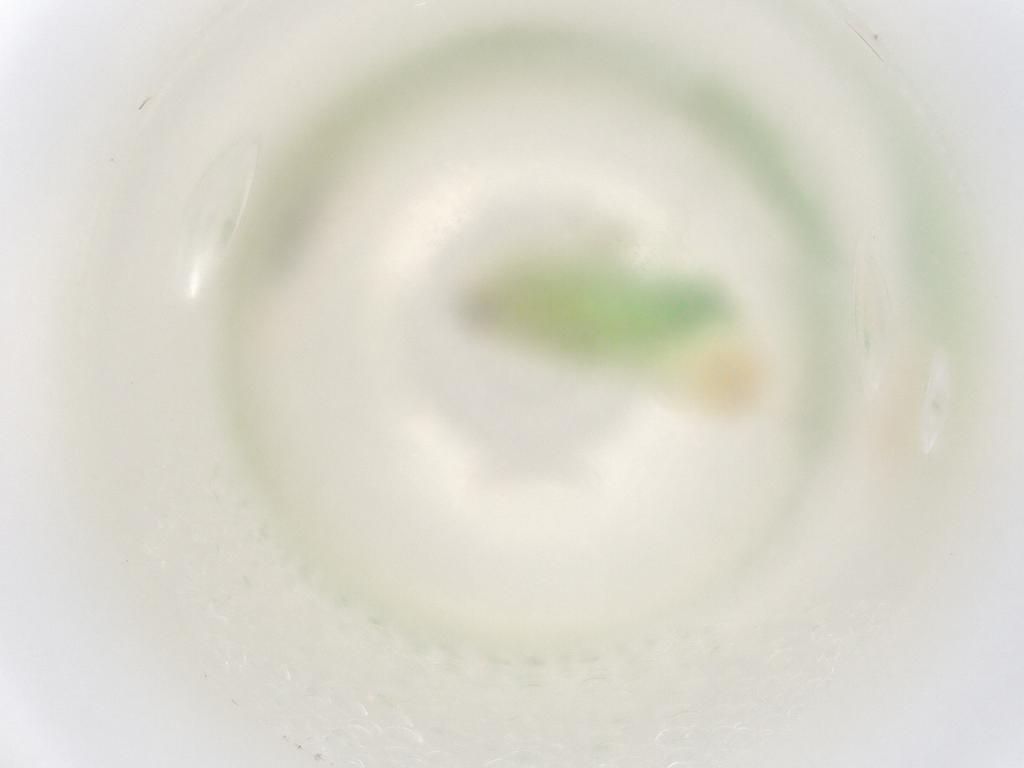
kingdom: Animalia
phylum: Arthropoda
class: Insecta
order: Hemiptera
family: Cicadellidae
